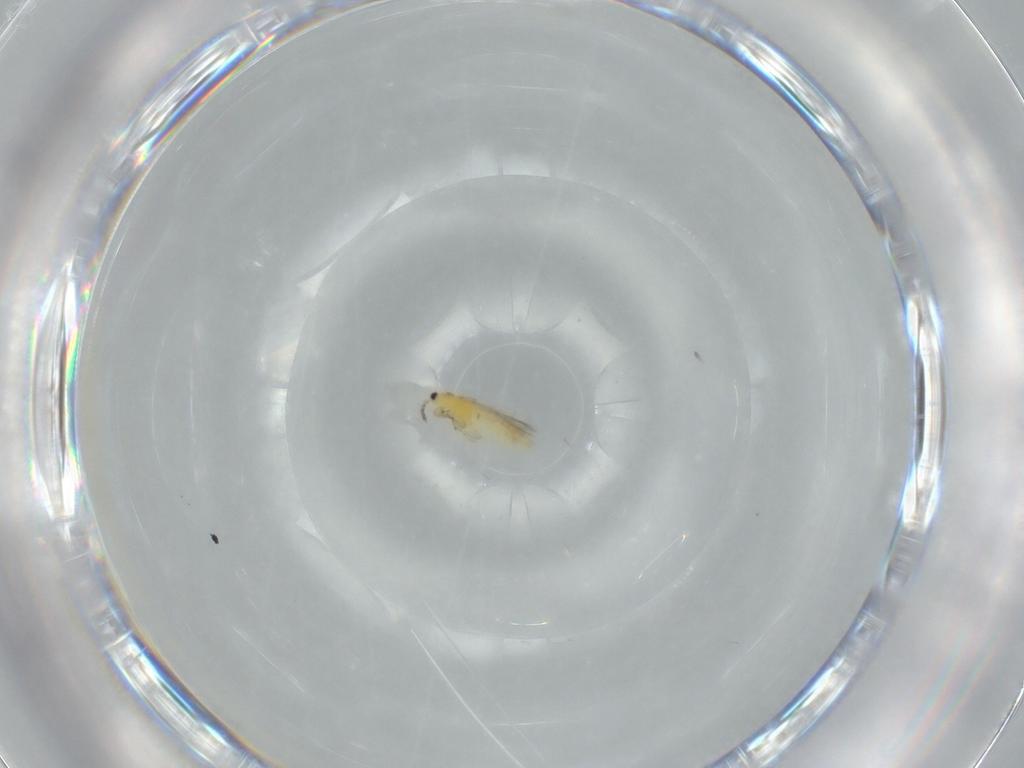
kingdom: Animalia
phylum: Arthropoda
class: Insecta
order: Thysanoptera
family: Thripidae
